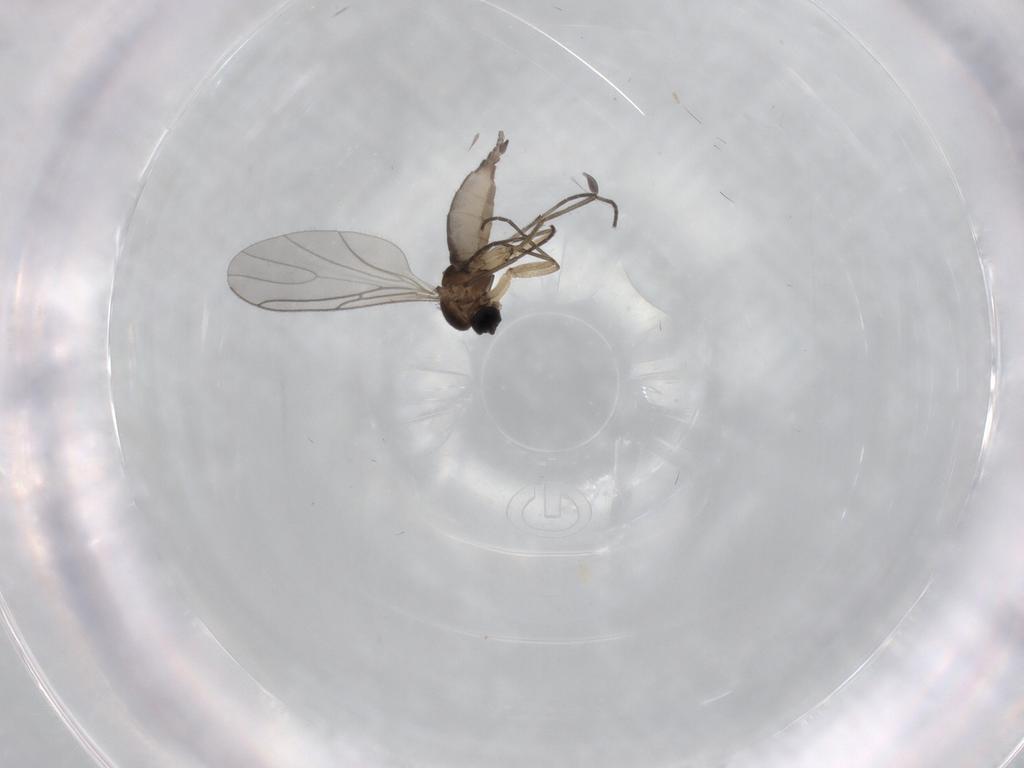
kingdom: Animalia
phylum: Arthropoda
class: Insecta
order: Diptera
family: Sciaridae
